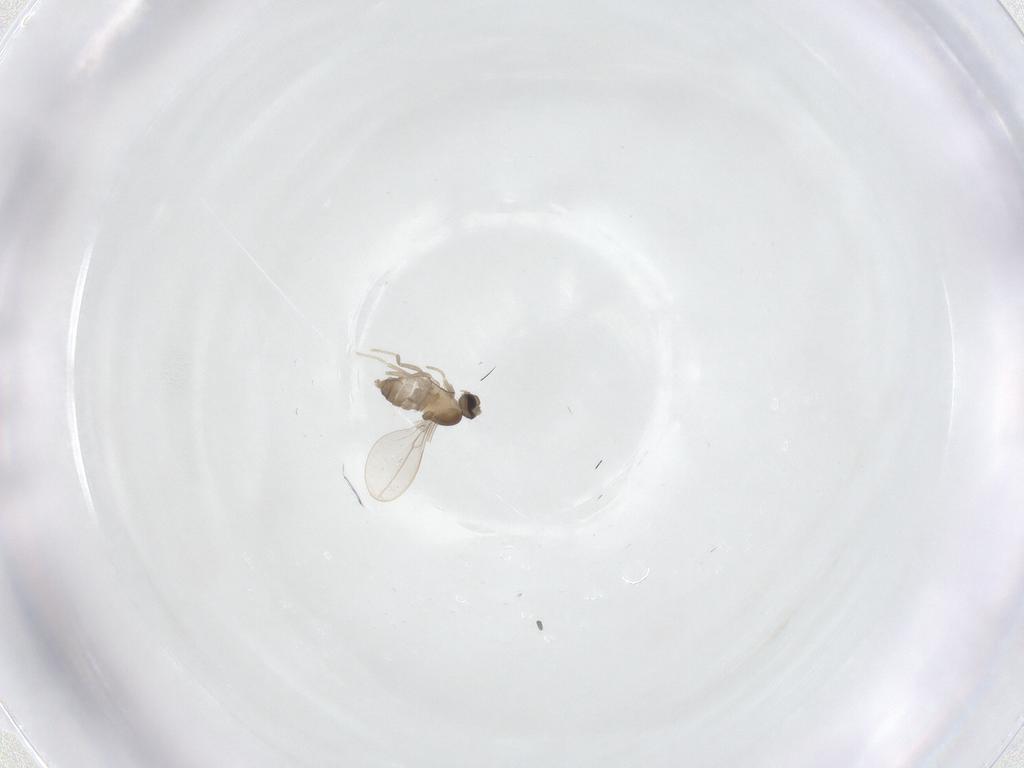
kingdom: Animalia
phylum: Arthropoda
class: Insecta
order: Diptera
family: Cecidomyiidae
